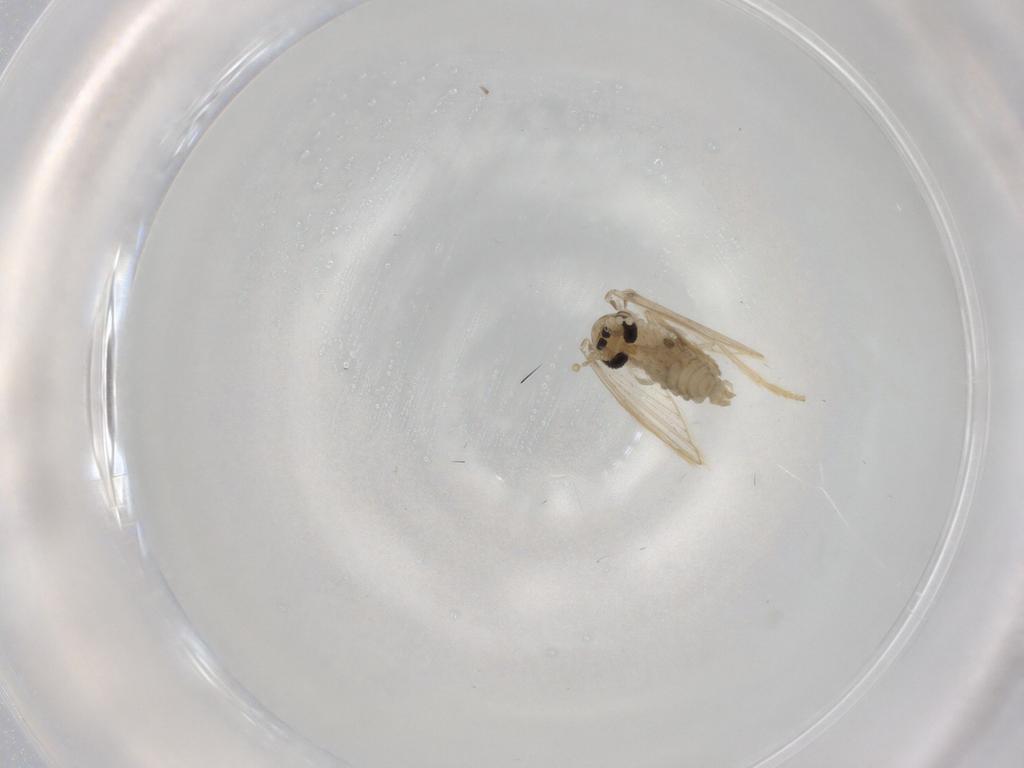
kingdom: Animalia
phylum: Arthropoda
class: Insecta
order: Diptera
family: Psychodidae
